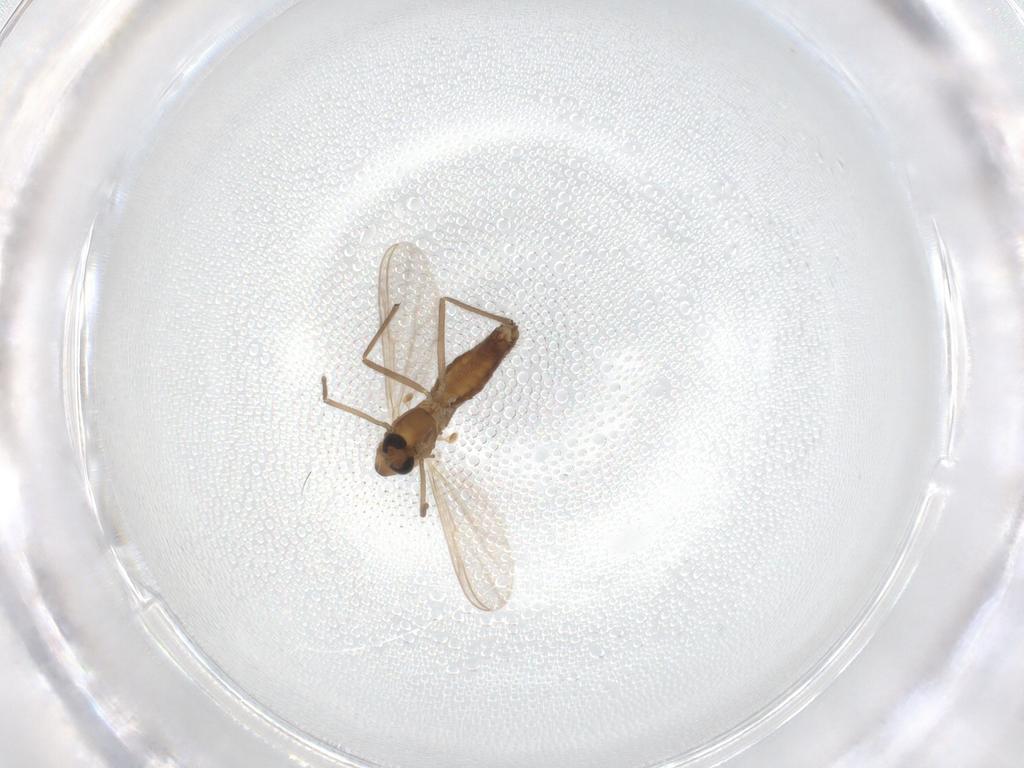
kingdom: Animalia
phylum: Arthropoda
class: Insecta
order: Diptera
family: Chironomidae
